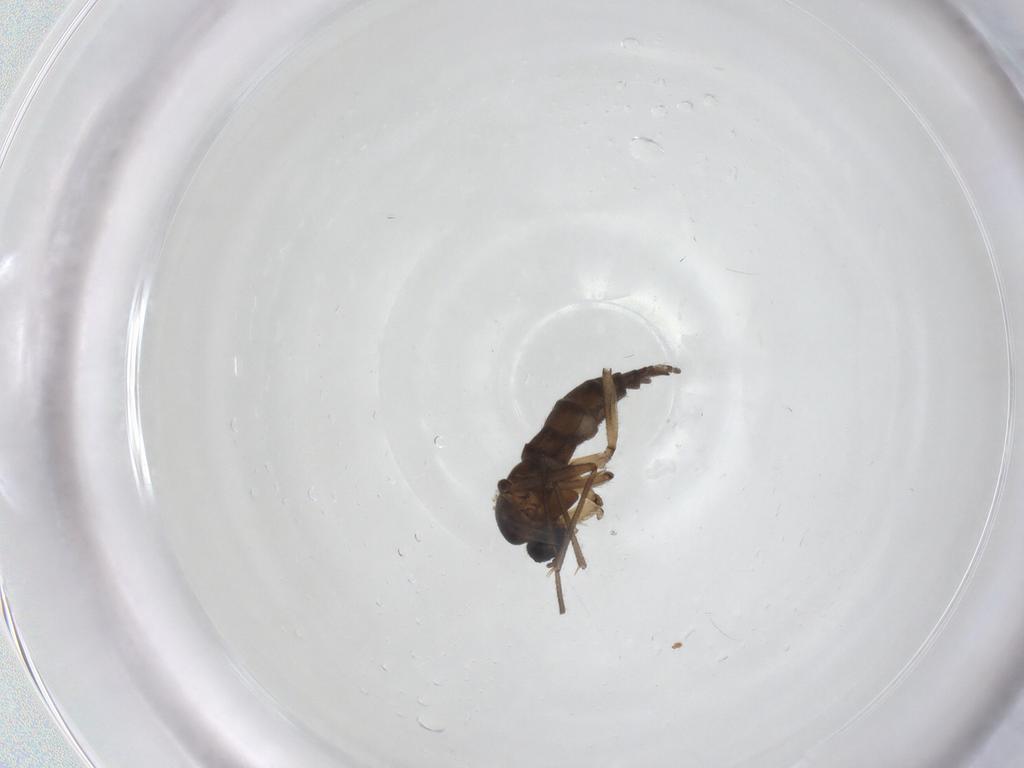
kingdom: Animalia
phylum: Arthropoda
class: Insecta
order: Diptera
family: Sciaridae
